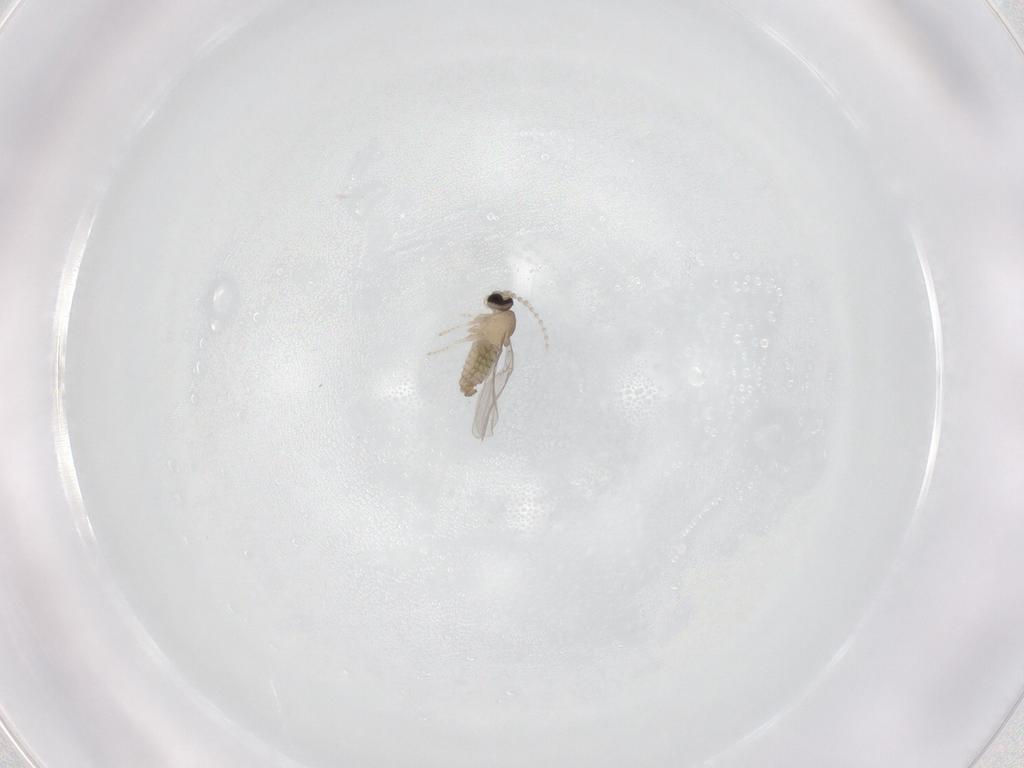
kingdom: Animalia
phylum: Arthropoda
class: Insecta
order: Diptera
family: Cecidomyiidae
